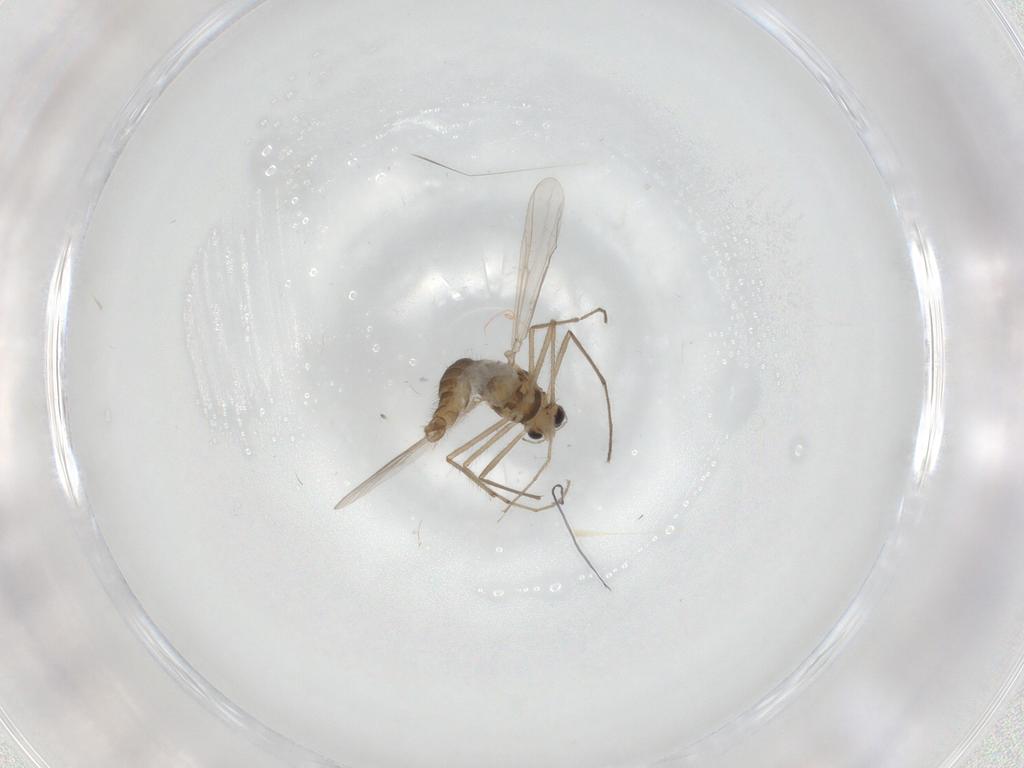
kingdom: Animalia
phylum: Arthropoda
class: Insecta
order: Diptera
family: Chironomidae
